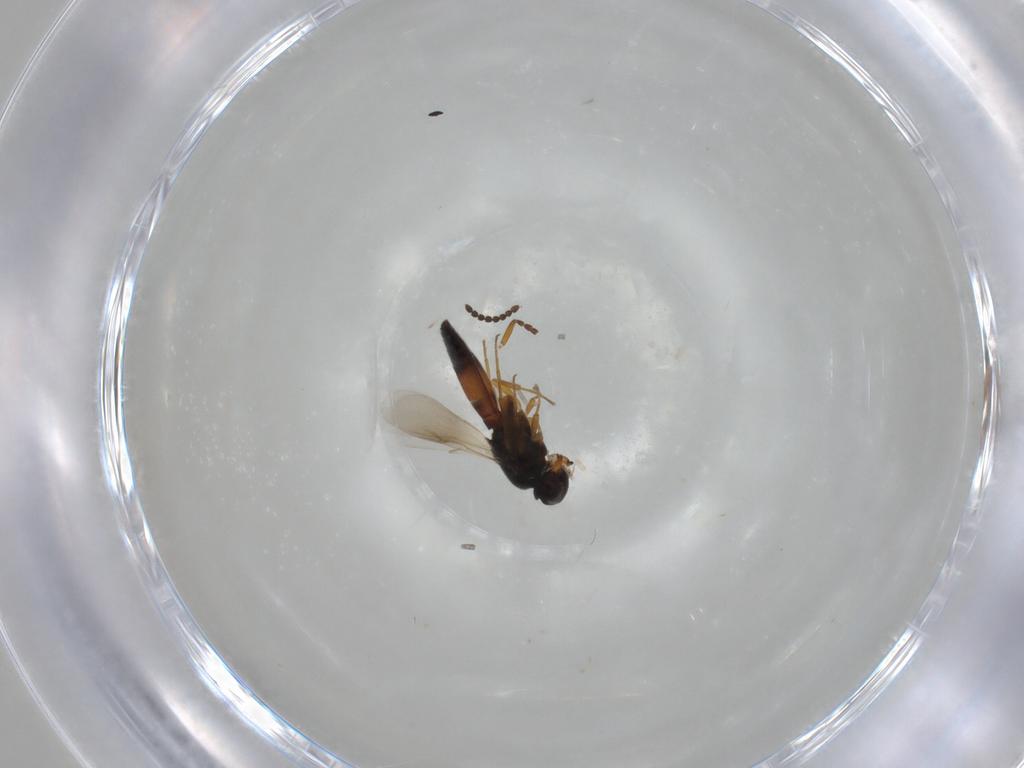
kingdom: Animalia
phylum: Arthropoda
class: Insecta
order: Hymenoptera
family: Scelionidae
